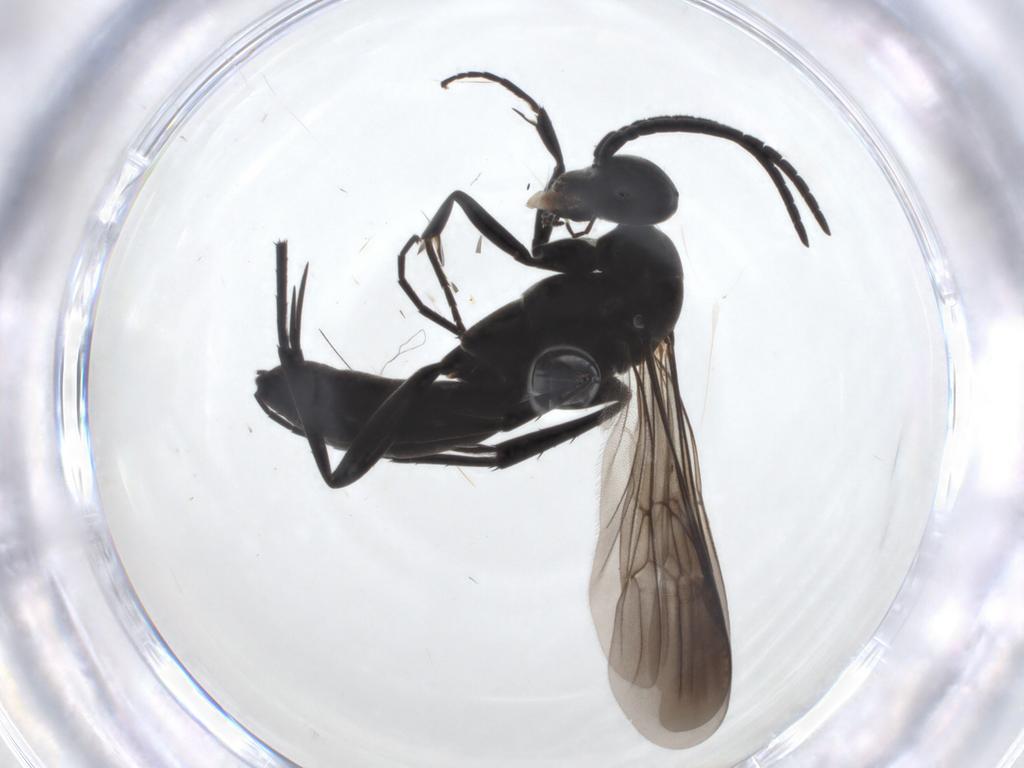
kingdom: Animalia
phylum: Arthropoda
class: Insecta
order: Hymenoptera
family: Pompilidae
